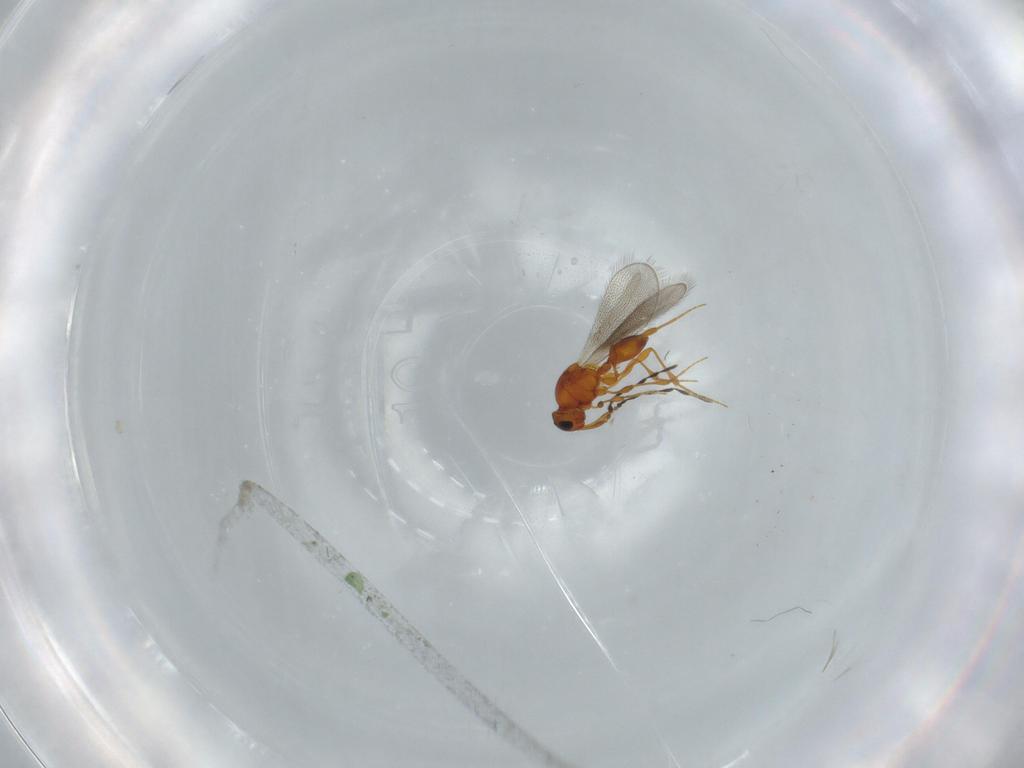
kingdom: Animalia
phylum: Arthropoda
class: Insecta
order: Hymenoptera
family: Platygastridae
